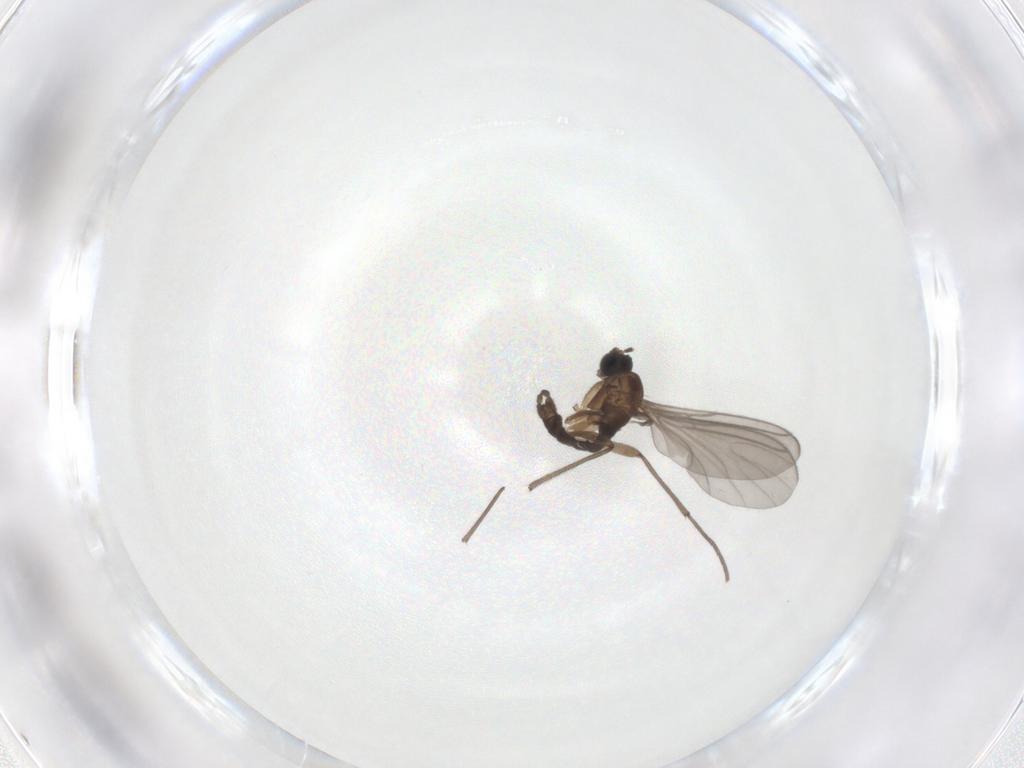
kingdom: Animalia
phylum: Arthropoda
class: Insecta
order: Diptera
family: Sciaridae
